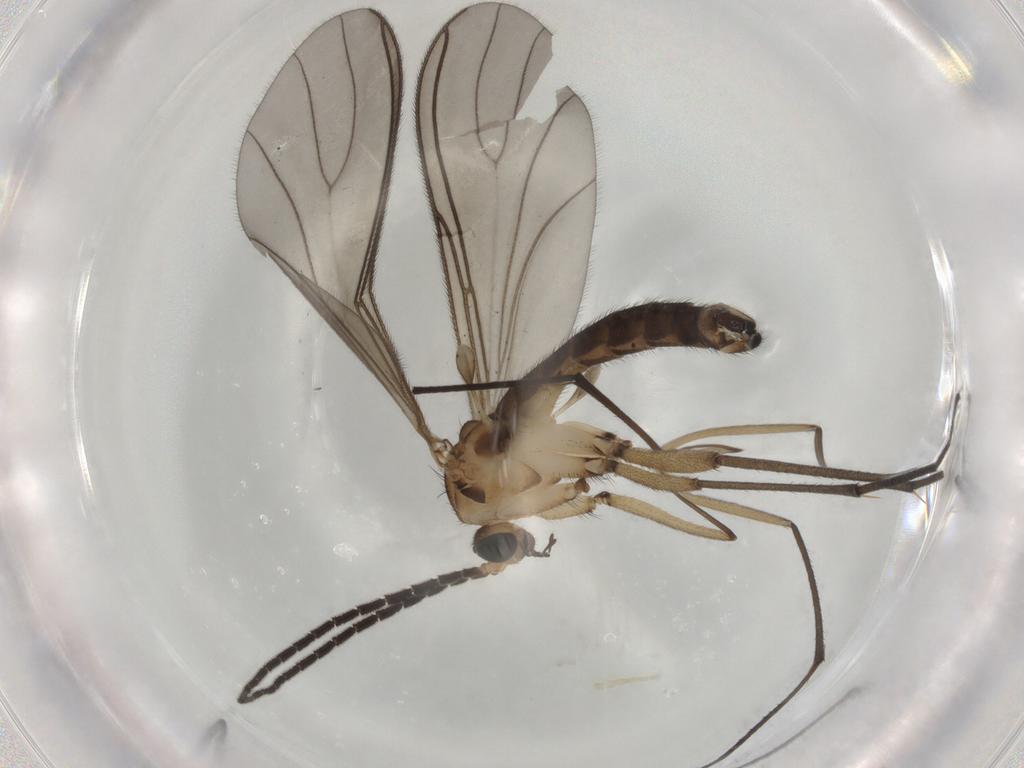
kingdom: Animalia
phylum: Arthropoda
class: Insecta
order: Diptera
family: Sciaridae
